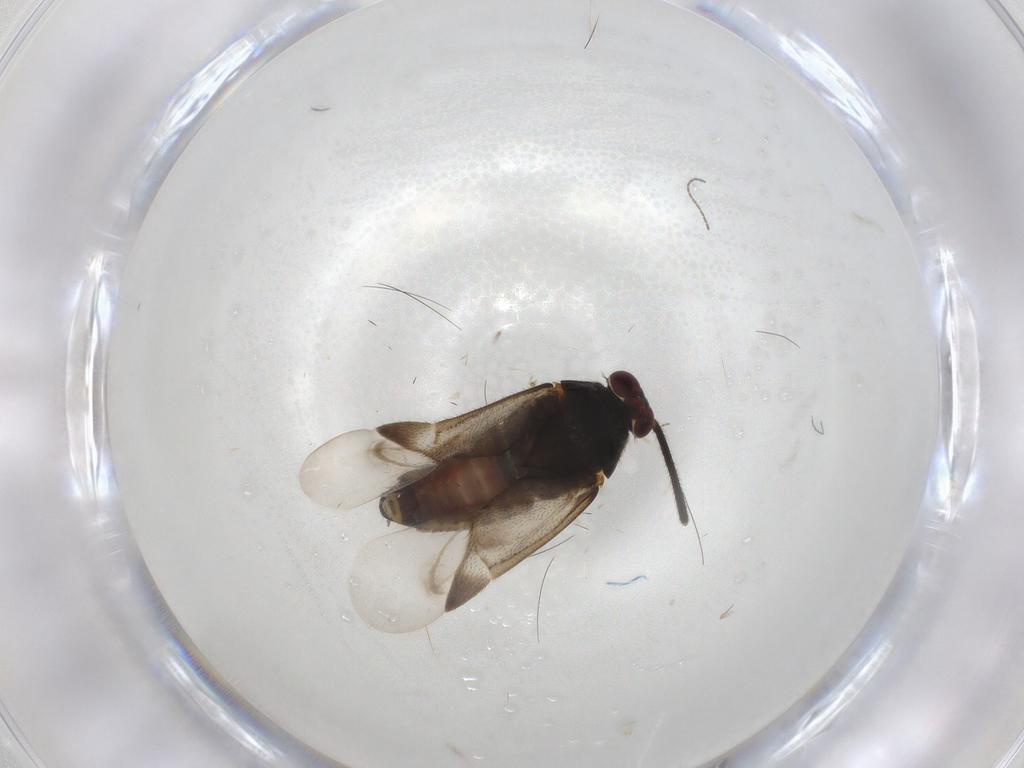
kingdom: Animalia
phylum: Arthropoda
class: Insecta
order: Hemiptera
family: Miridae
